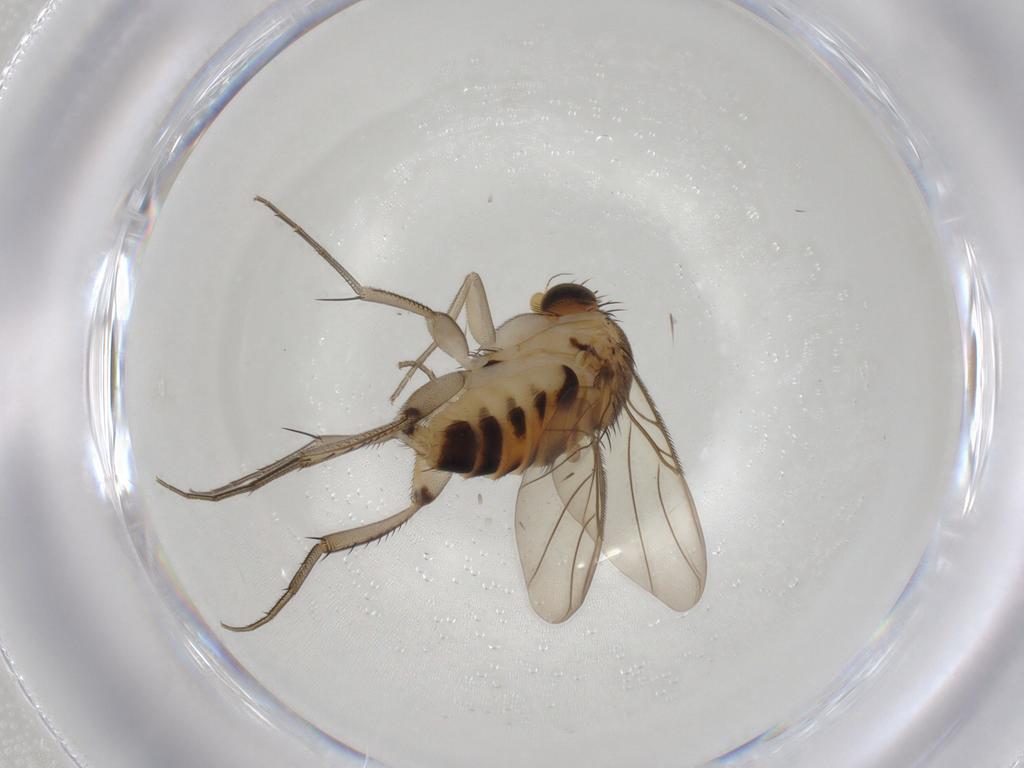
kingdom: Animalia
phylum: Arthropoda
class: Insecta
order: Diptera
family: Phoridae
